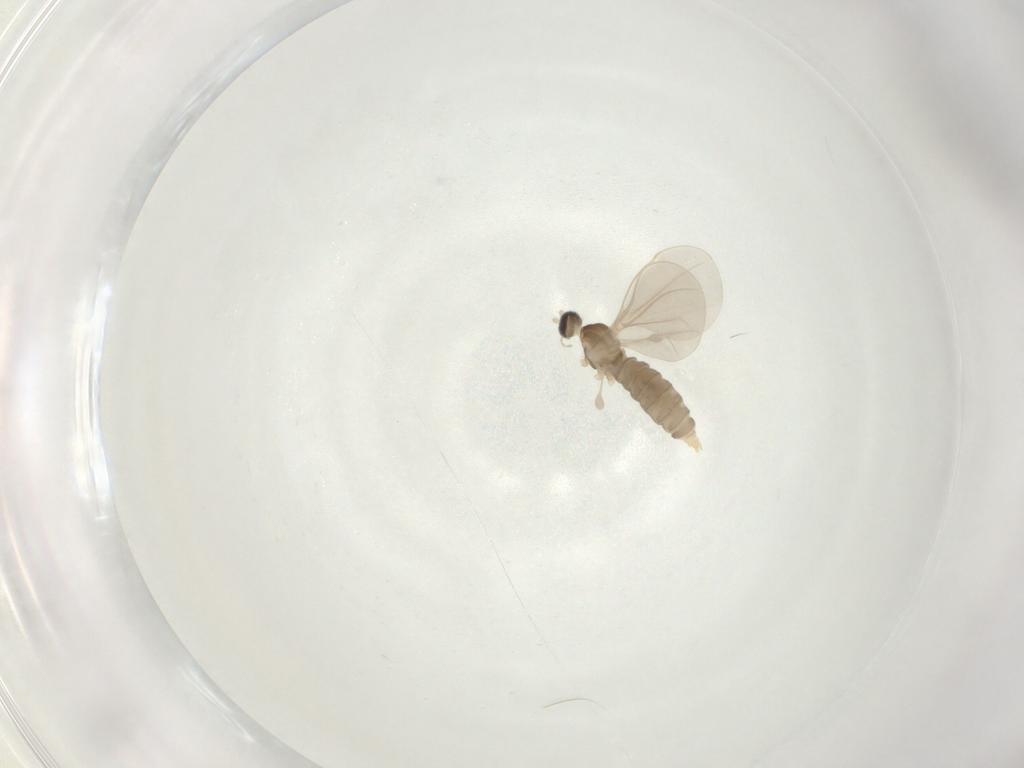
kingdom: Animalia
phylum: Arthropoda
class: Insecta
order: Diptera
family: Cecidomyiidae
